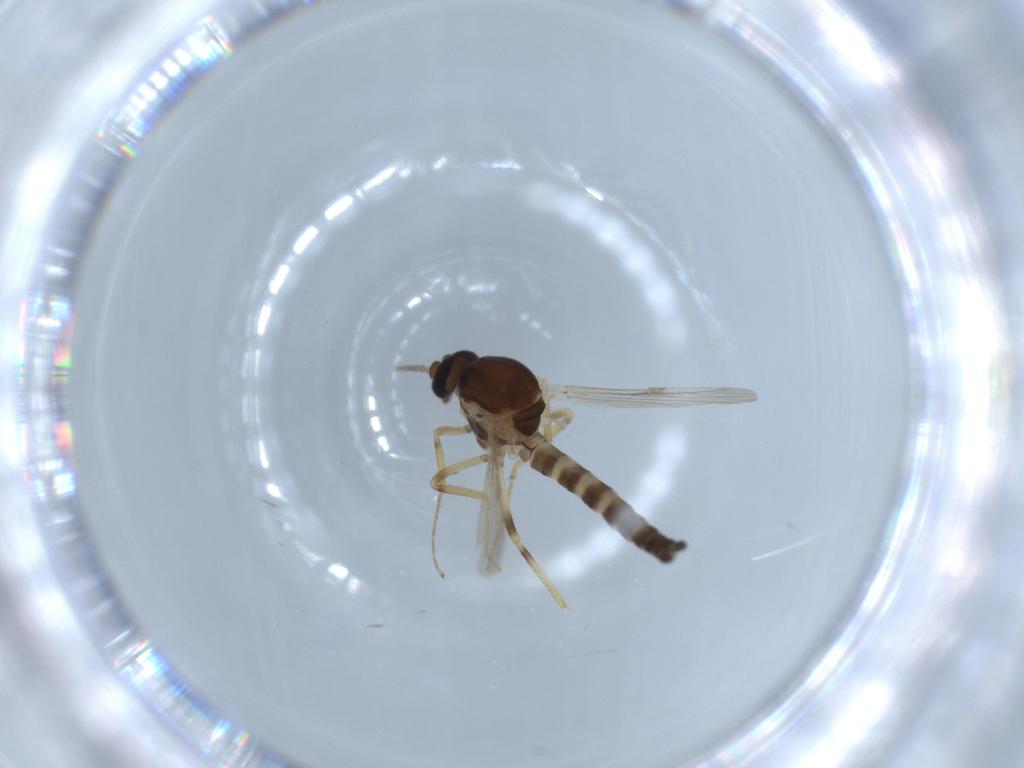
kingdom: Animalia
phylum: Arthropoda
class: Insecta
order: Diptera
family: Ceratopogonidae
